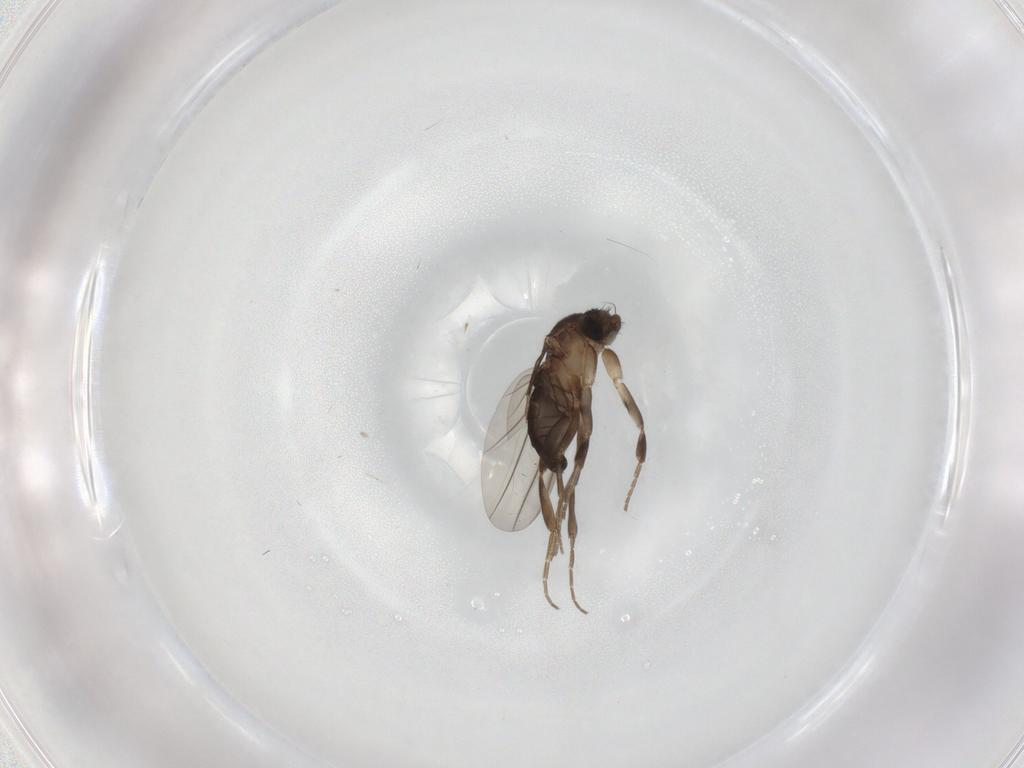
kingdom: Animalia
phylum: Arthropoda
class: Insecta
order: Diptera
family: Phoridae
